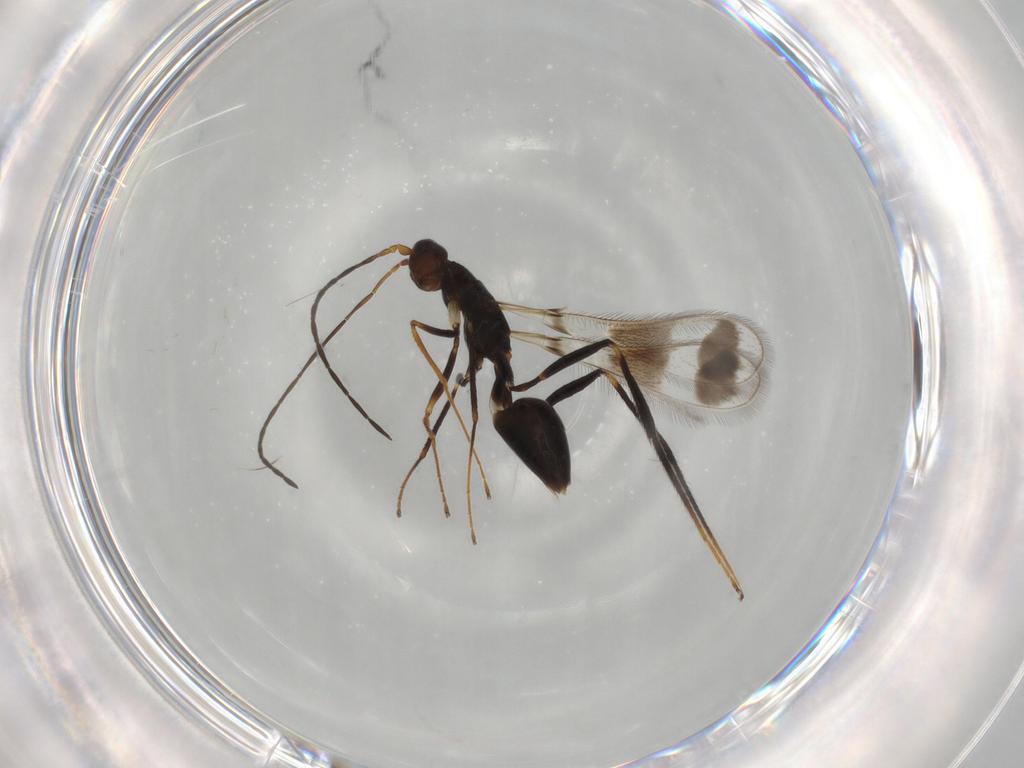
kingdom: Animalia
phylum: Arthropoda
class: Insecta
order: Hymenoptera
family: Mymaridae
